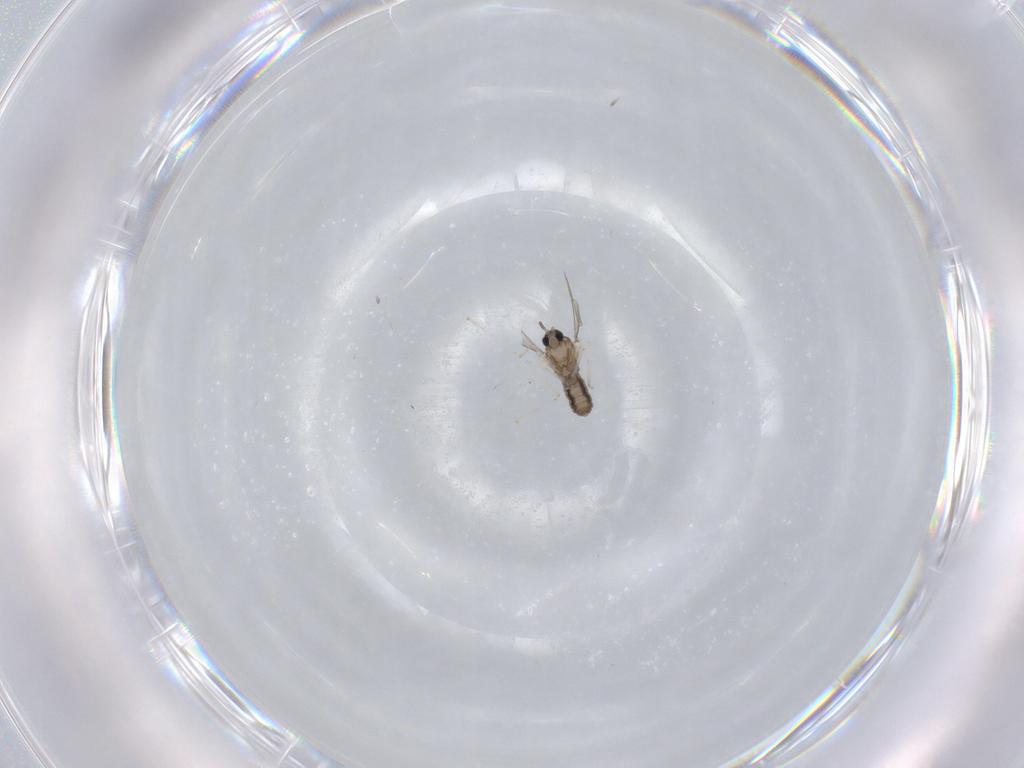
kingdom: Animalia
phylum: Arthropoda
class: Insecta
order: Diptera
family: Cecidomyiidae
